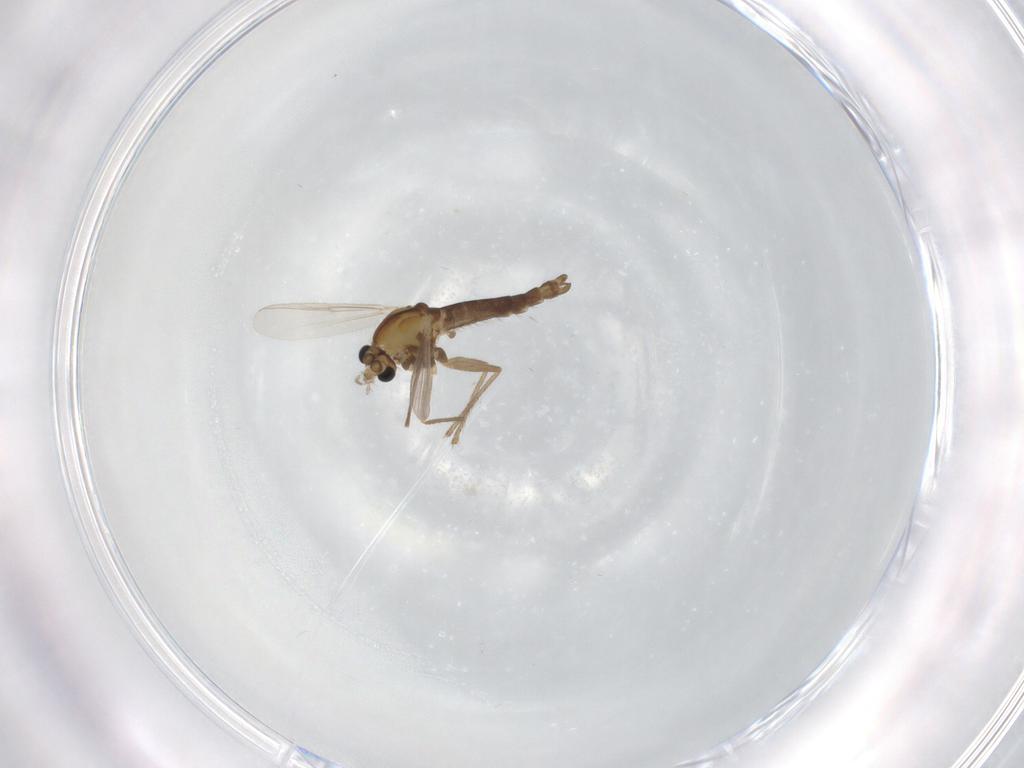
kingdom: Animalia
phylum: Arthropoda
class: Insecta
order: Diptera
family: Chironomidae
